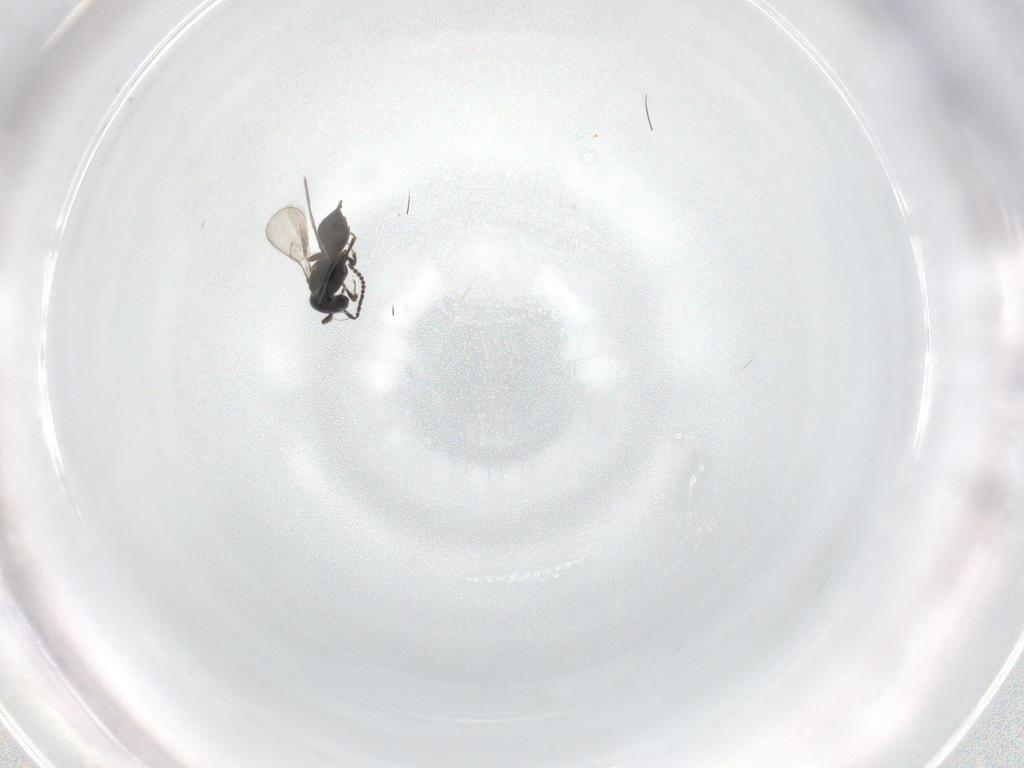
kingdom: Animalia
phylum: Arthropoda
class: Insecta
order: Hymenoptera
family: Scelionidae
